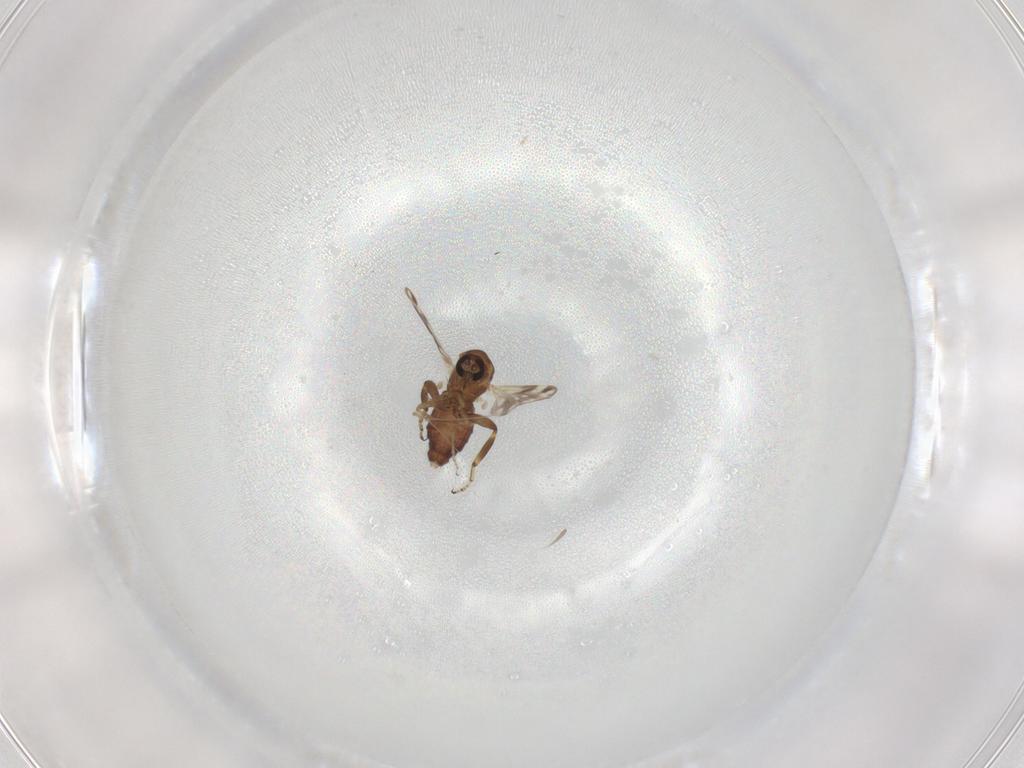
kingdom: Animalia
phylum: Arthropoda
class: Insecta
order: Diptera
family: Ceratopogonidae
